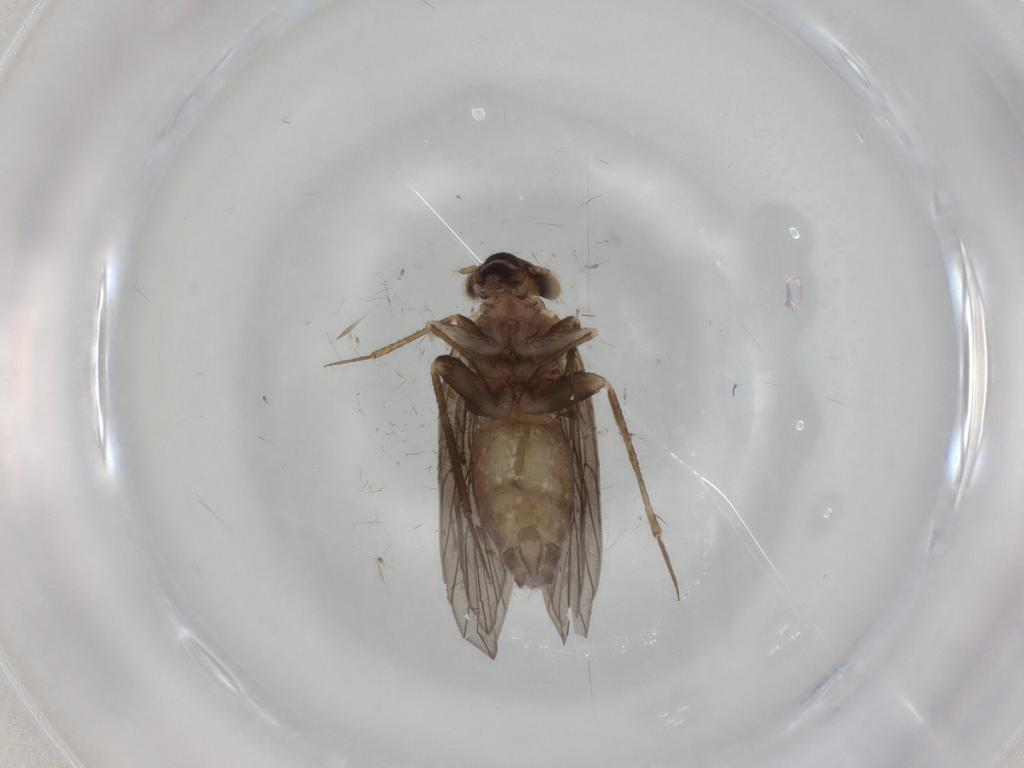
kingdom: Animalia
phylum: Arthropoda
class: Insecta
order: Psocodea
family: Lepidopsocidae
